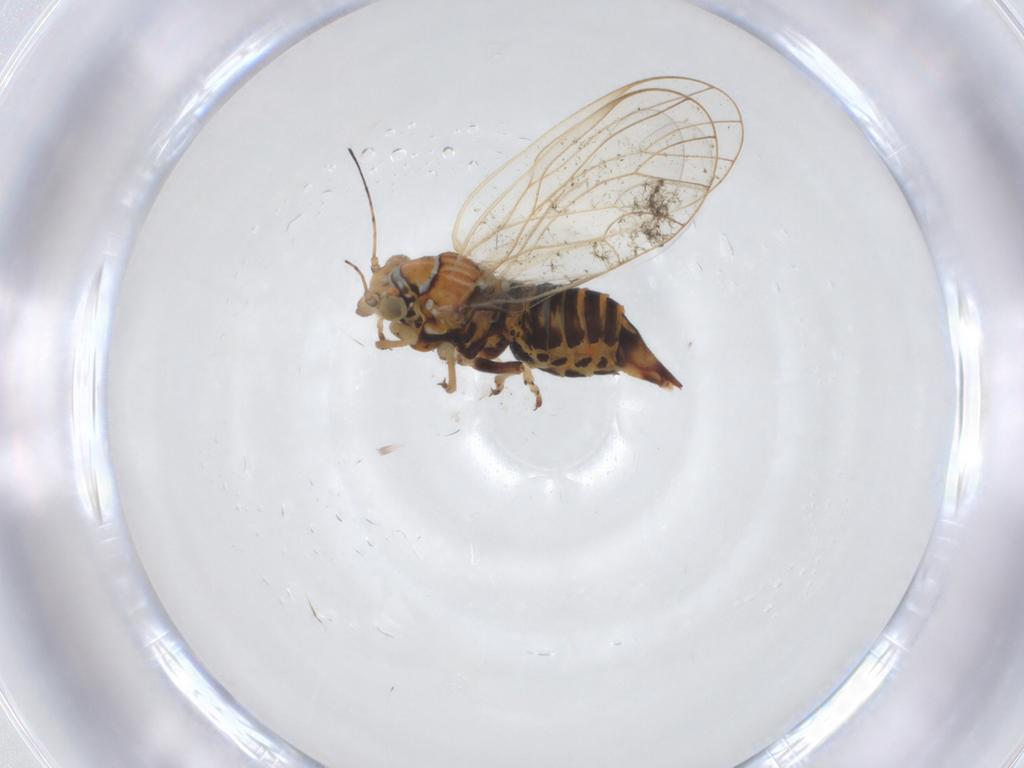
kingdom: Animalia
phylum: Arthropoda
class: Insecta
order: Hemiptera
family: Psyllidae
